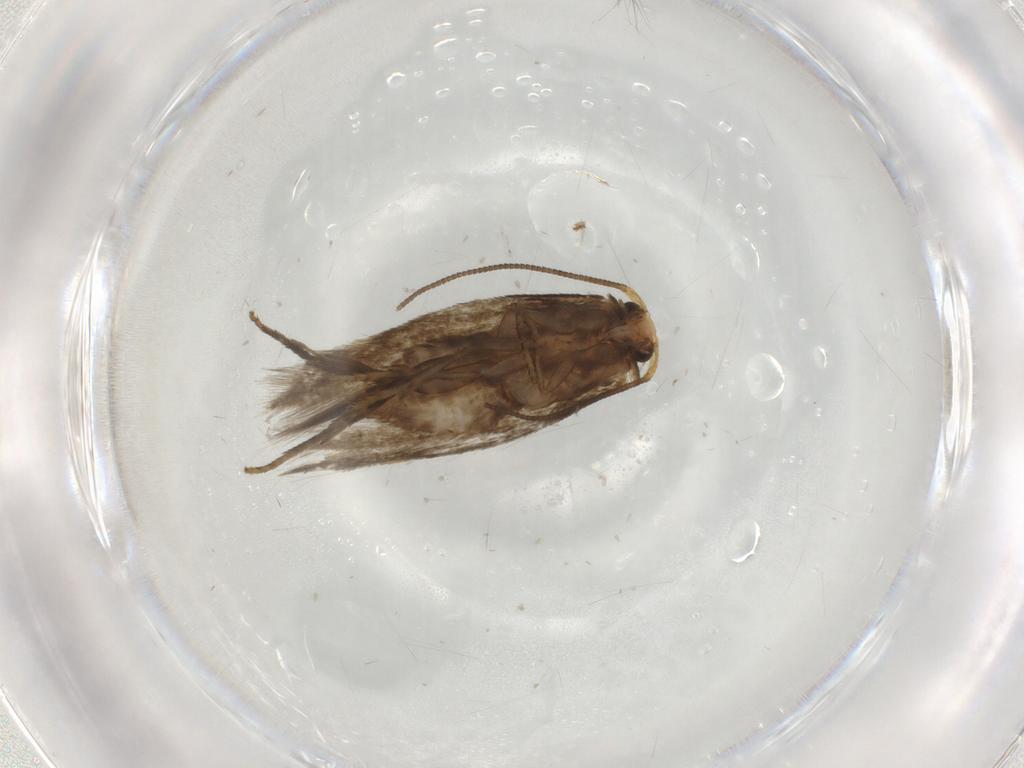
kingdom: Animalia
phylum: Arthropoda
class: Insecta
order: Lepidoptera
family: Nepticulidae
